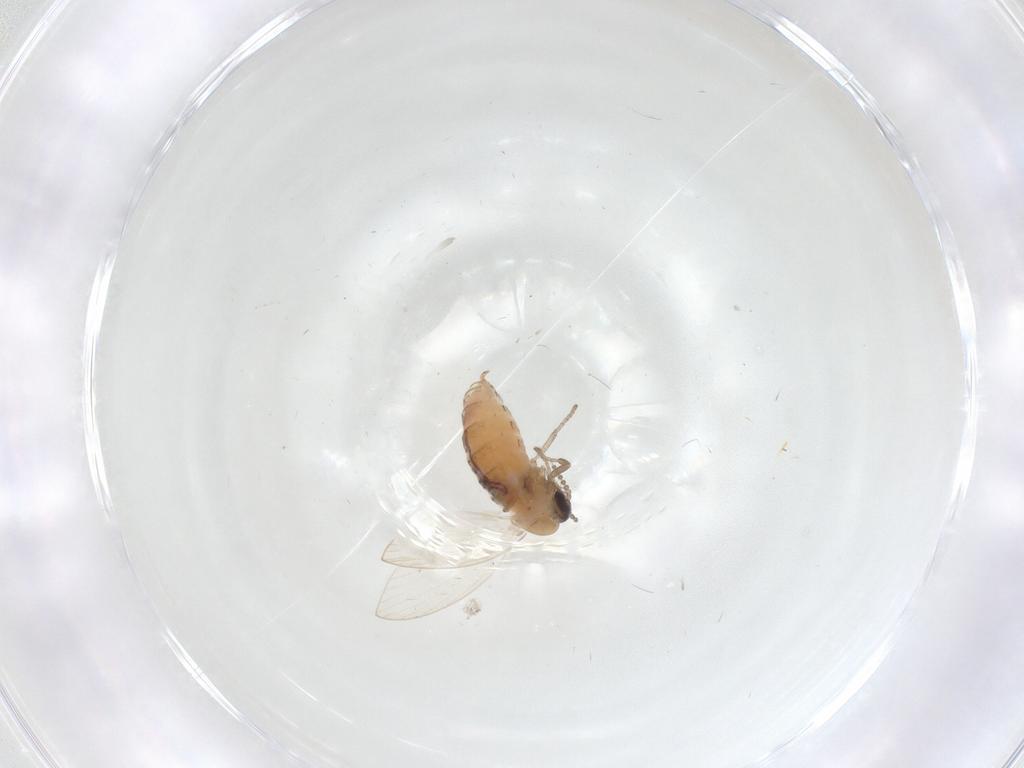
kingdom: Animalia
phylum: Arthropoda
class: Insecta
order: Diptera
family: Psychodidae
